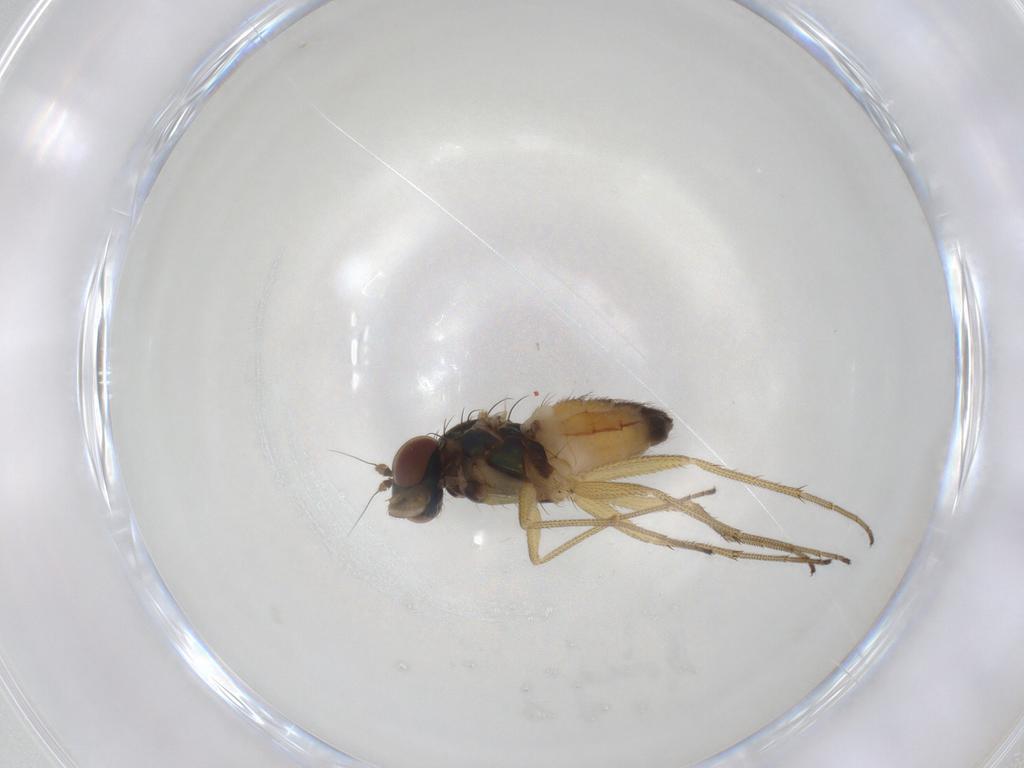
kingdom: Animalia
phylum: Arthropoda
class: Insecta
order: Diptera
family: Dolichopodidae
